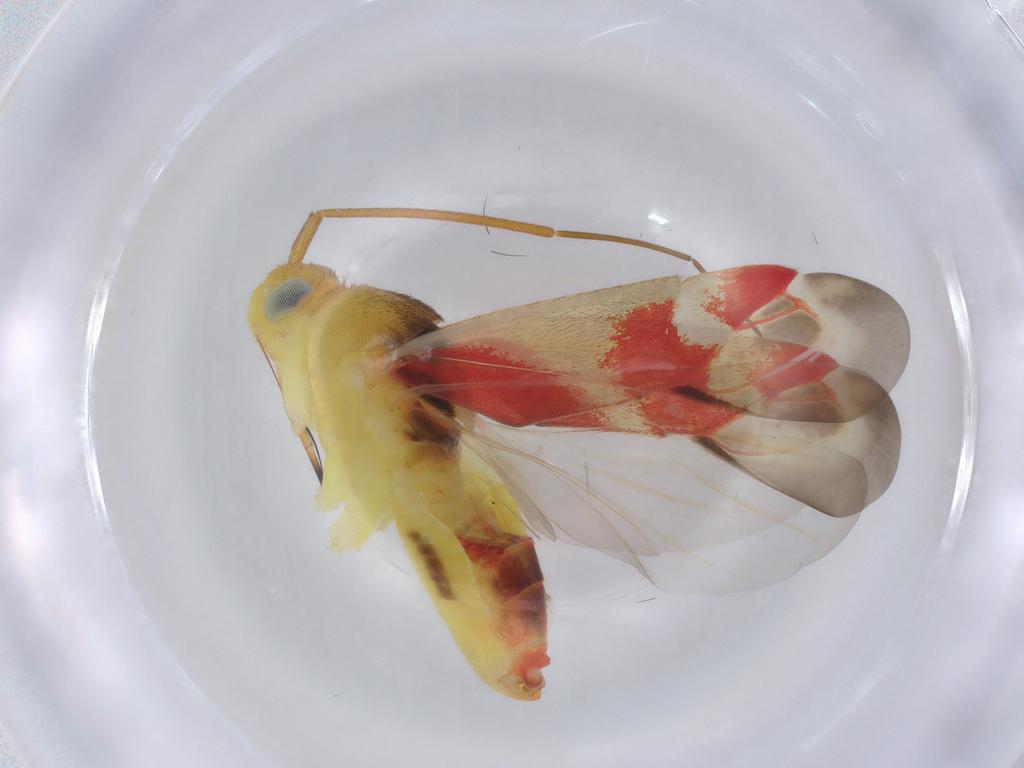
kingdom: Animalia
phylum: Arthropoda
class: Insecta
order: Hemiptera
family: Miridae
